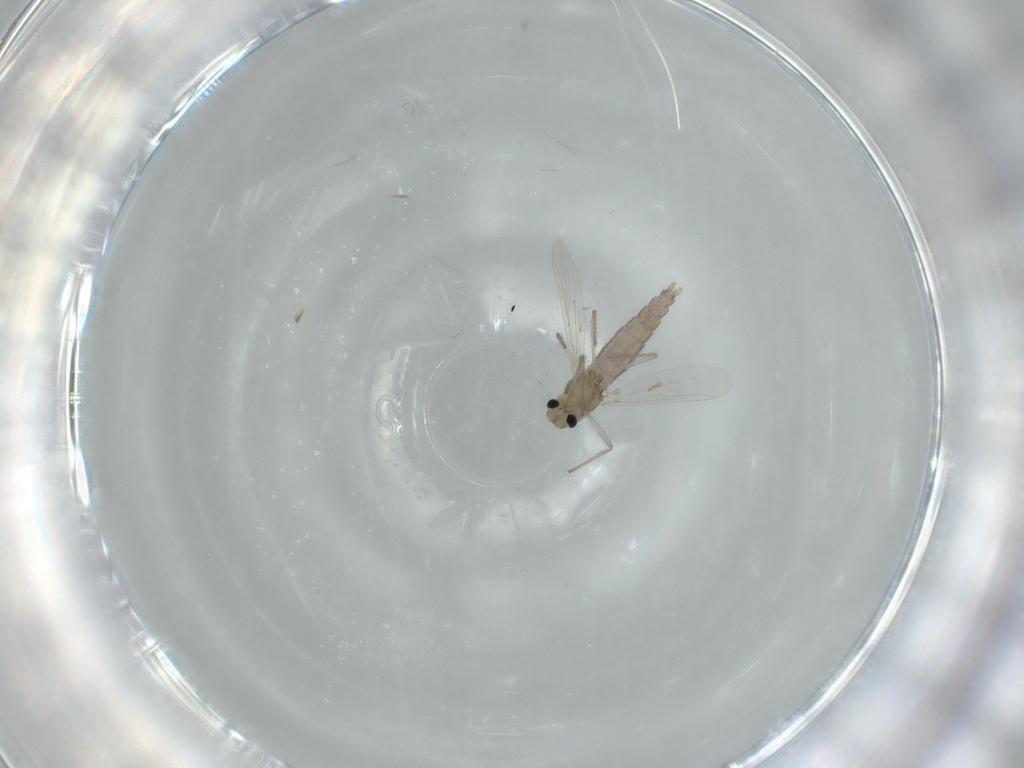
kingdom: Animalia
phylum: Arthropoda
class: Insecta
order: Diptera
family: Chironomidae
